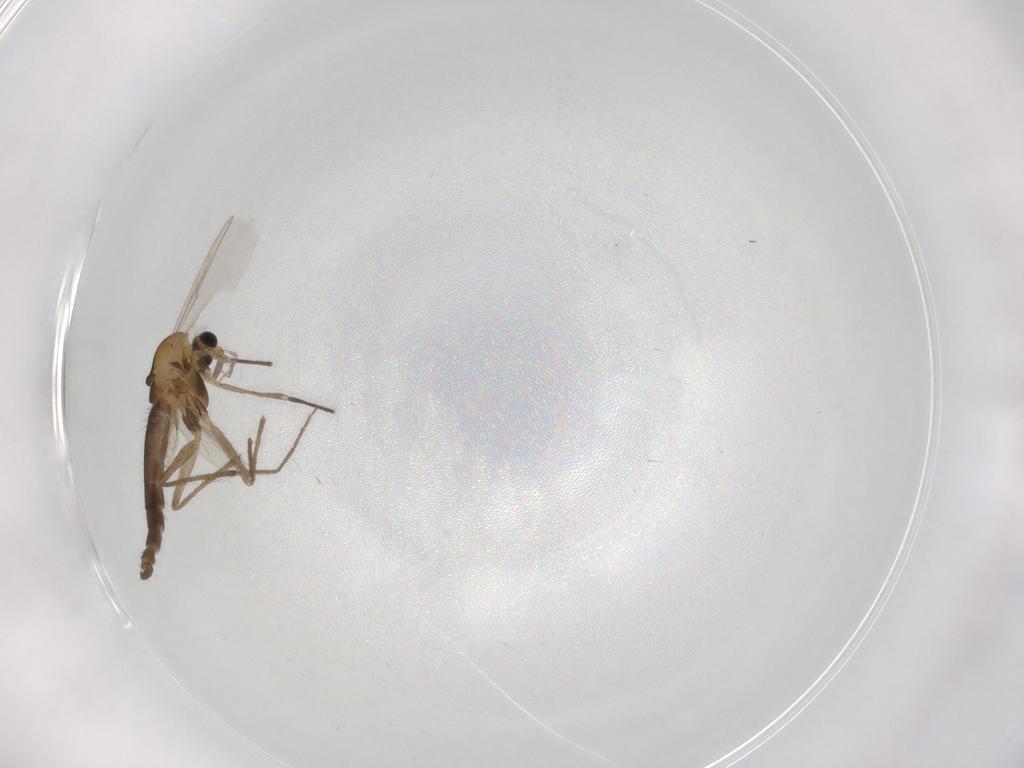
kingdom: Animalia
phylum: Arthropoda
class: Insecta
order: Diptera
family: Chironomidae
